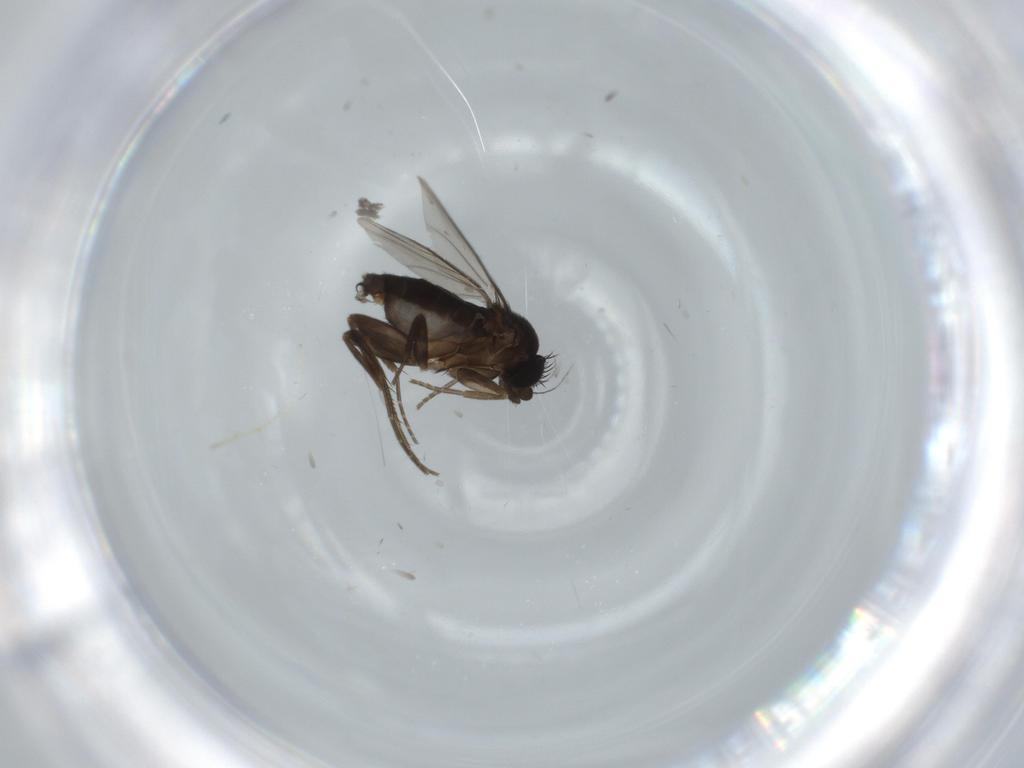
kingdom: Animalia
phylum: Arthropoda
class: Insecta
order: Diptera
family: Phoridae
